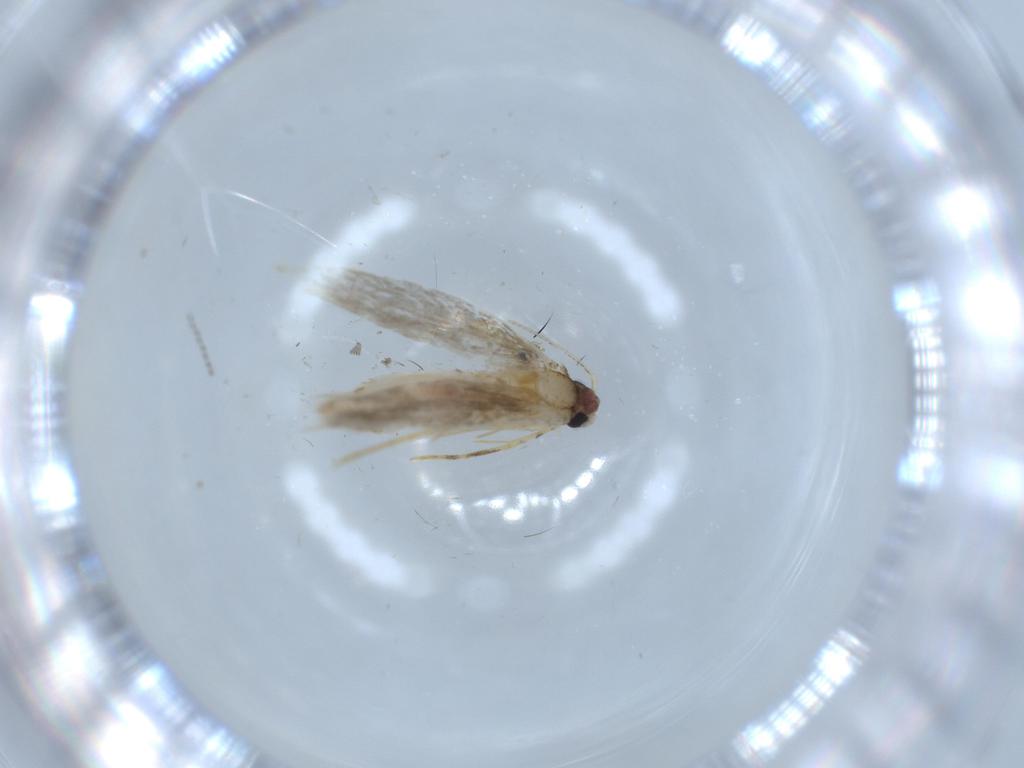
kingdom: Animalia
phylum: Arthropoda
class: Insecta
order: Lepidoptera
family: Tineidae
